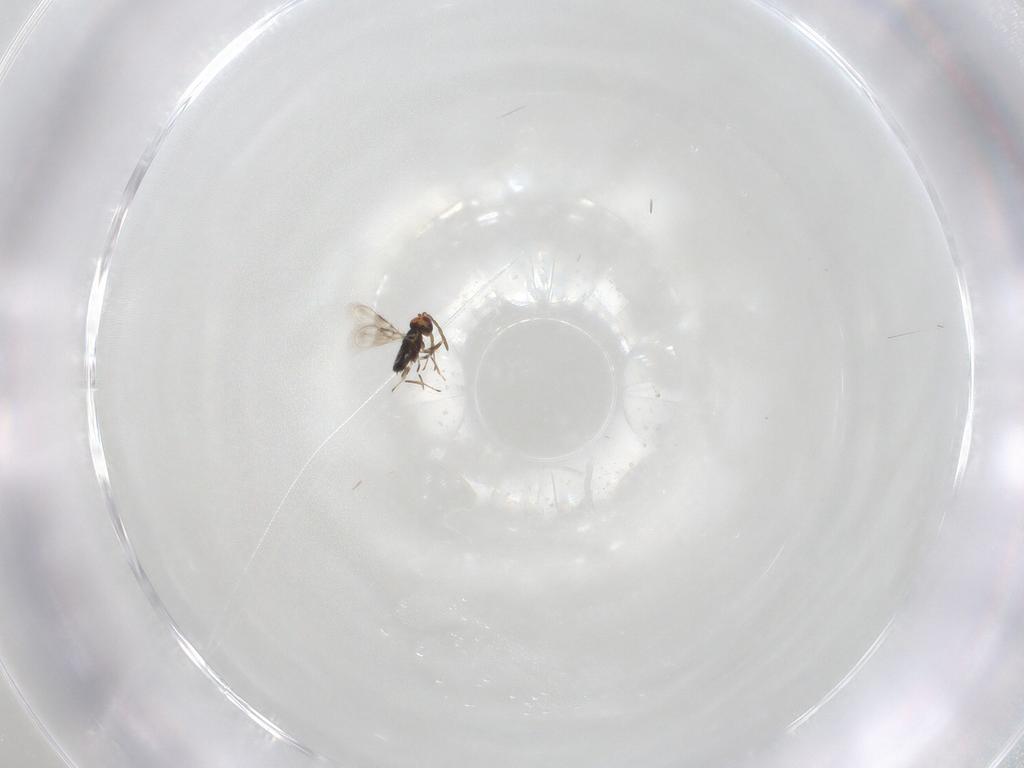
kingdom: Animalia
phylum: Arthropoda
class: Insecta
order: Hymenoptera
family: Azotidae
